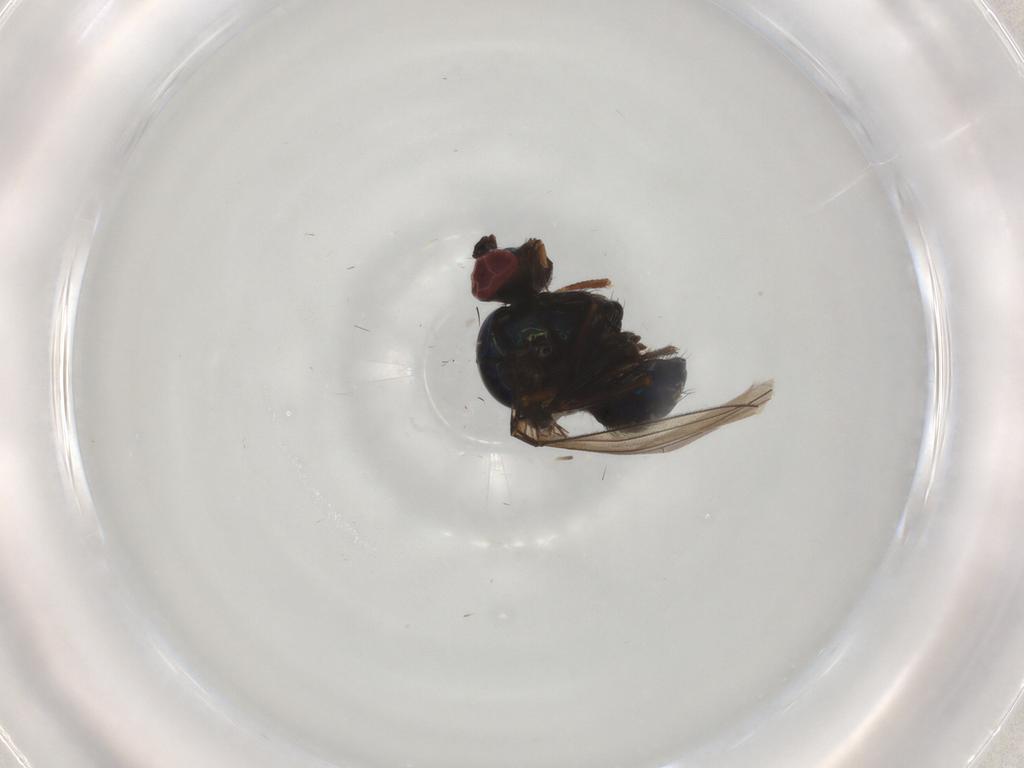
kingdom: Animalia
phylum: Arthropoda
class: Insecta
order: Diptera
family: Ephydridae
